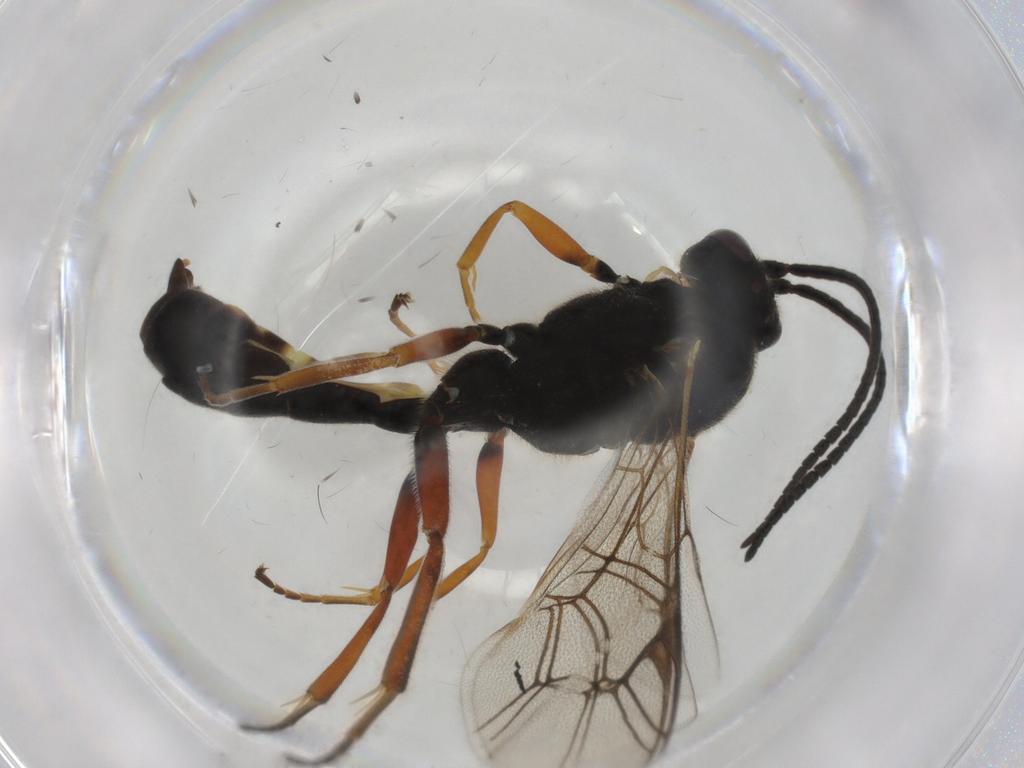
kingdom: Animalia
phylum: Arthropoda
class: Insecta
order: Hymenoptera
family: Ichneumonidae
